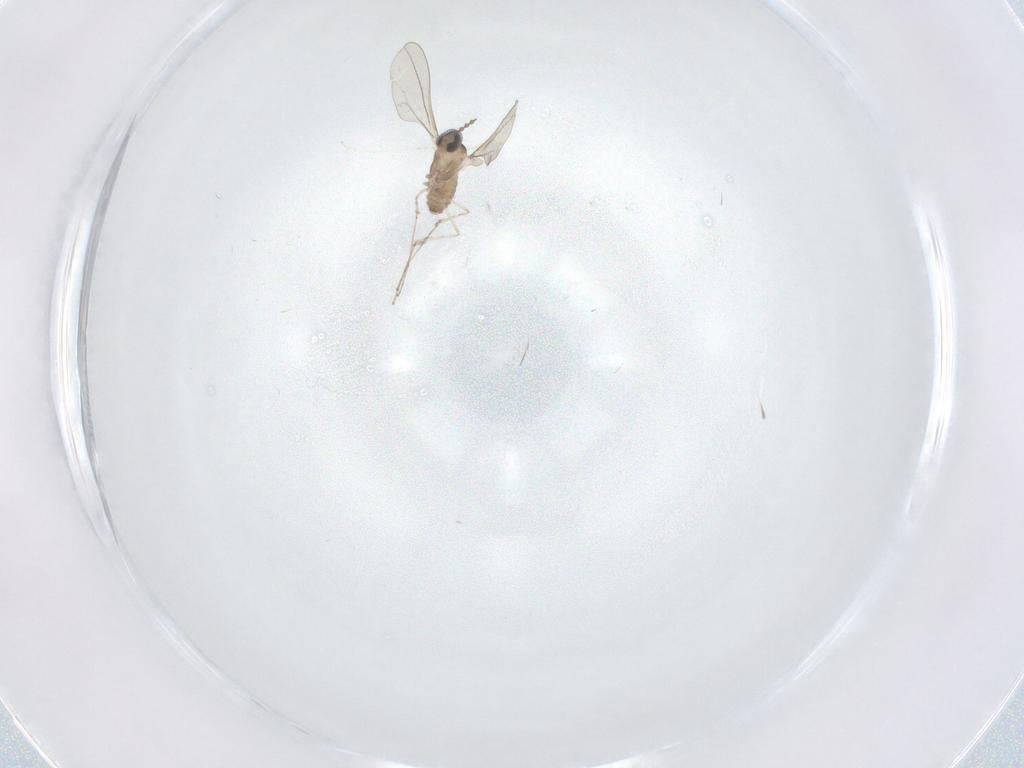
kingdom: Animalia
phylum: Arthropoda
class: Insecta
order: Diptera
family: Cecidomyiidae
